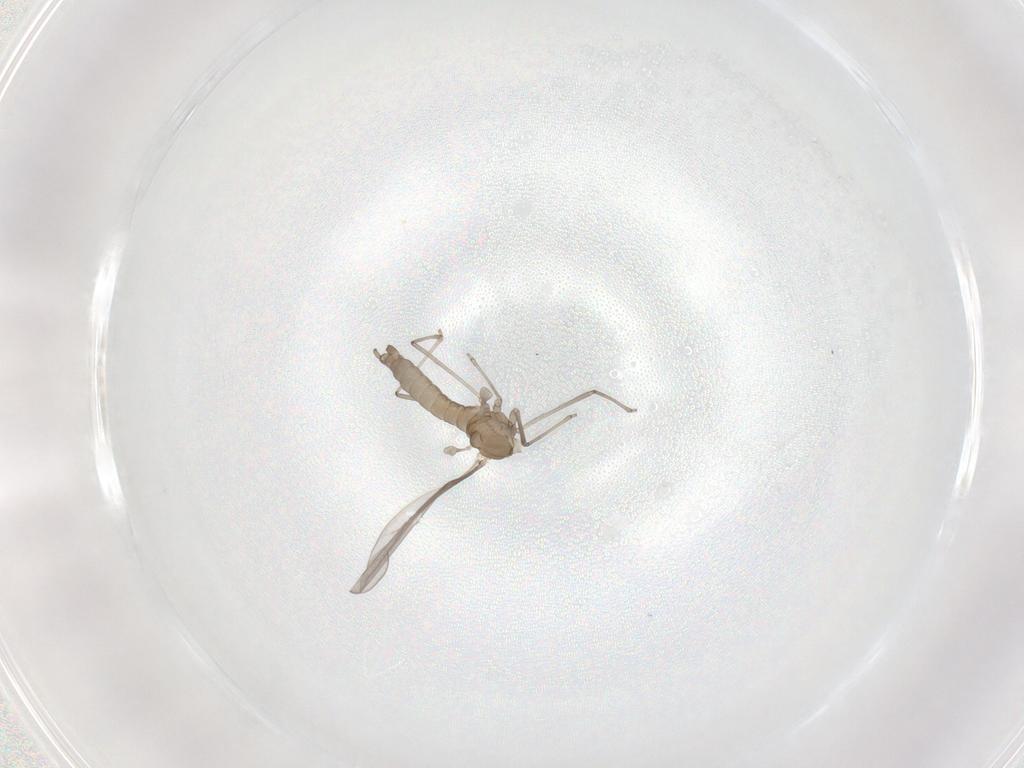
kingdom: Animalia
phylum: Arthropoda
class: Insecta
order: Diptera
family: Cecidomyiidae
